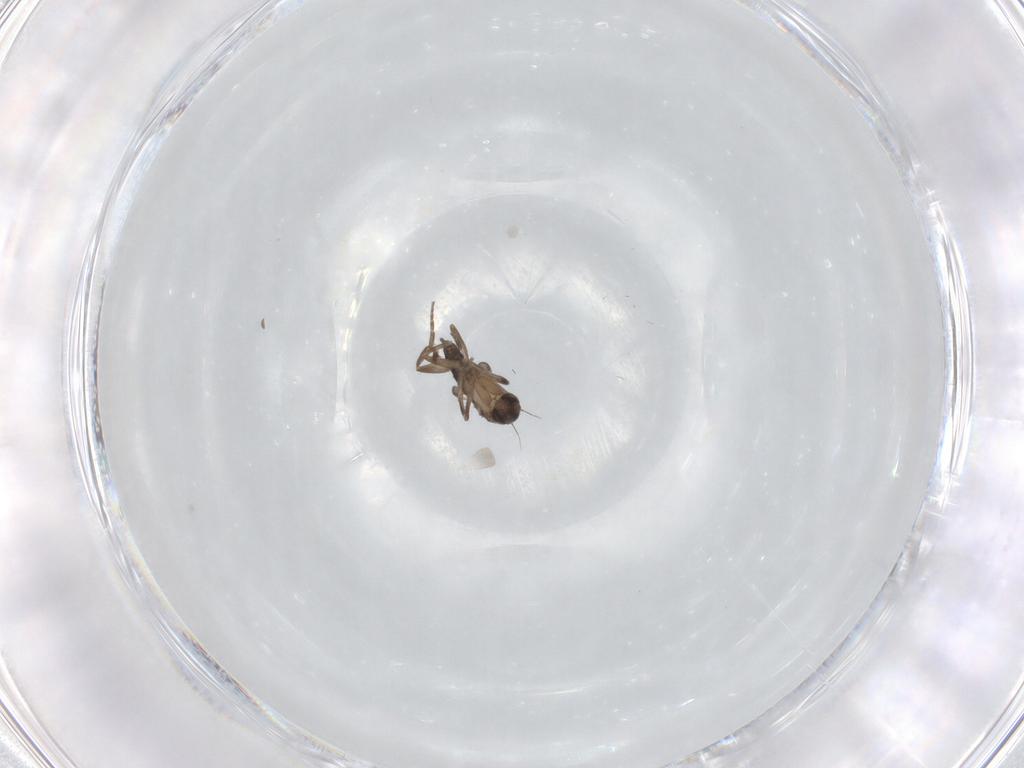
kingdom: Animalia
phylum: Arthropoda
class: Insecta
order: Diptera
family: Phoridae
